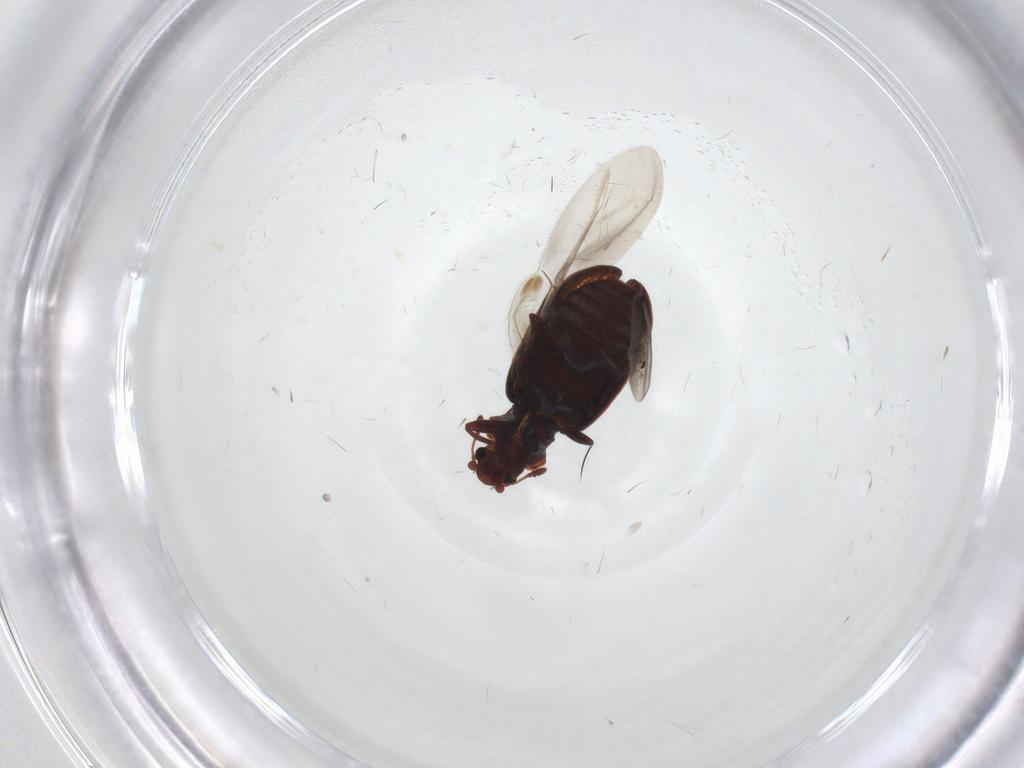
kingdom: Animalia
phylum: Arthropoda
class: Insecta
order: Coleoptera
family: Latridiidae
